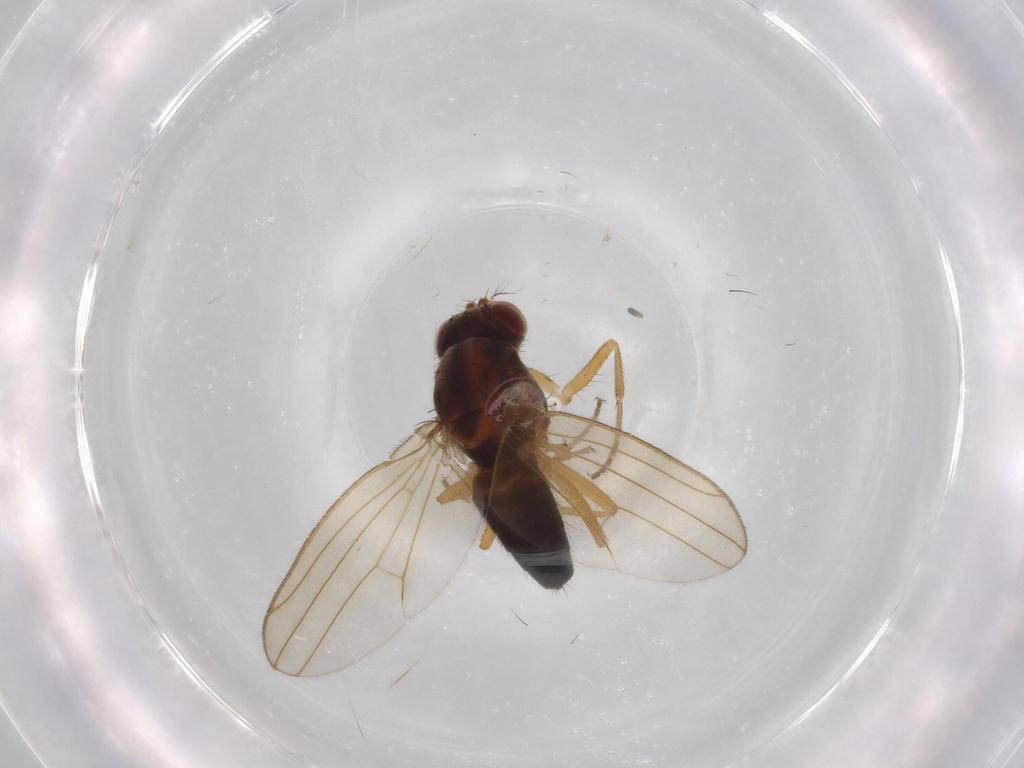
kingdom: Animalia
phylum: Arthropoda
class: Insecta
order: Diptera
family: Drosophilidae
